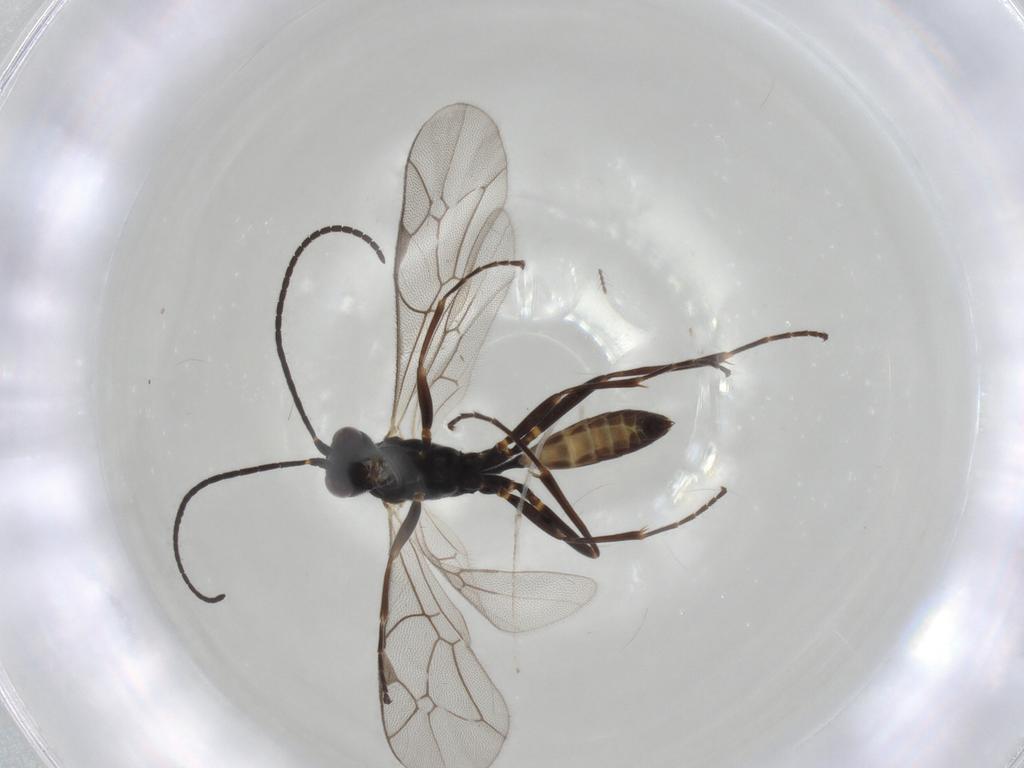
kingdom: Animalia
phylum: Arthropoda
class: Insecta
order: Hymenoptera
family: Ichneumonidae
